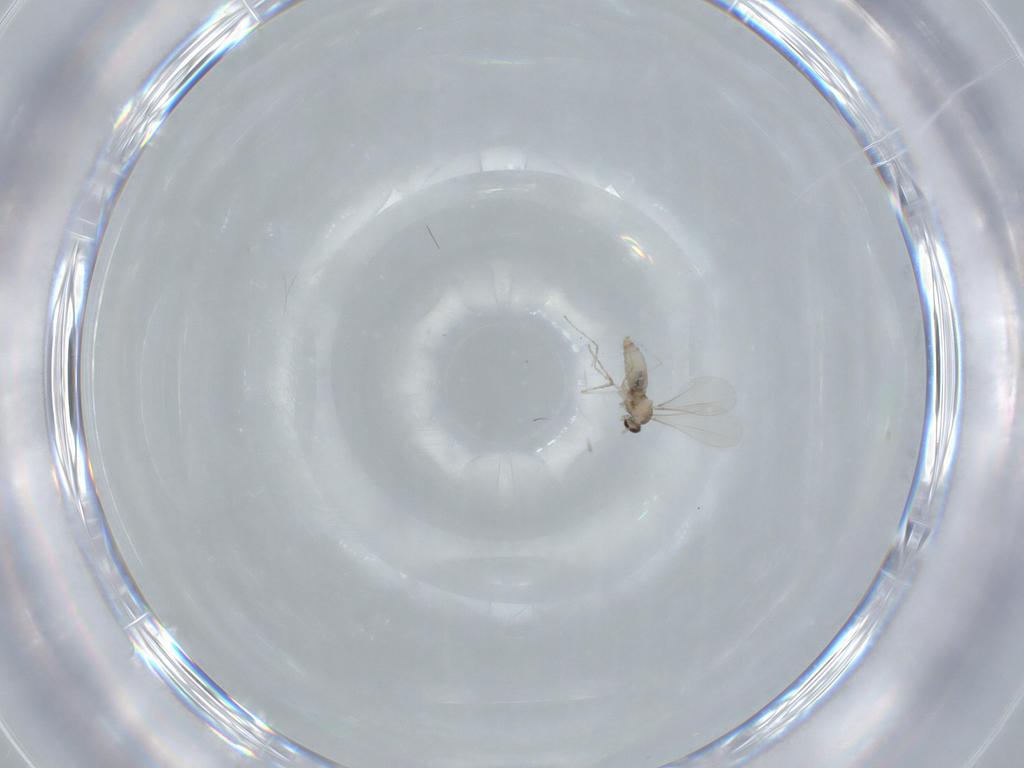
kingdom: Animalia
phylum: Arthropoda
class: Insecta
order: Diptera
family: Cecidomyiidae
